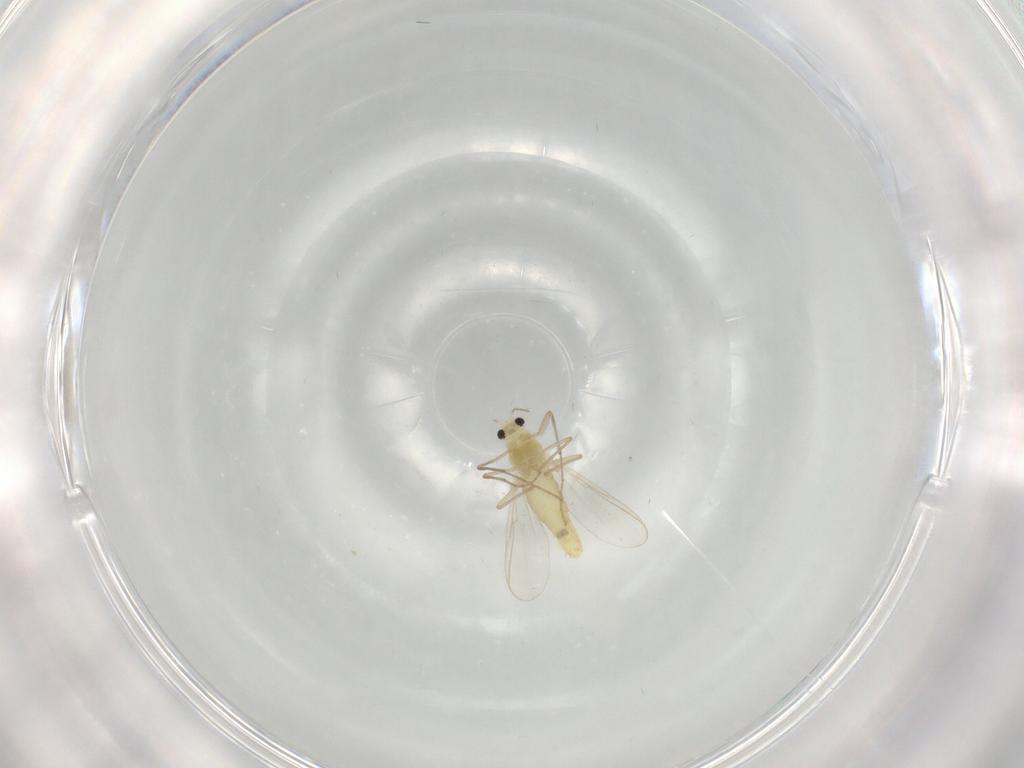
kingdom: Animalia
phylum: Arthropoda
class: Insecta
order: Diptera
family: Chironomidae
